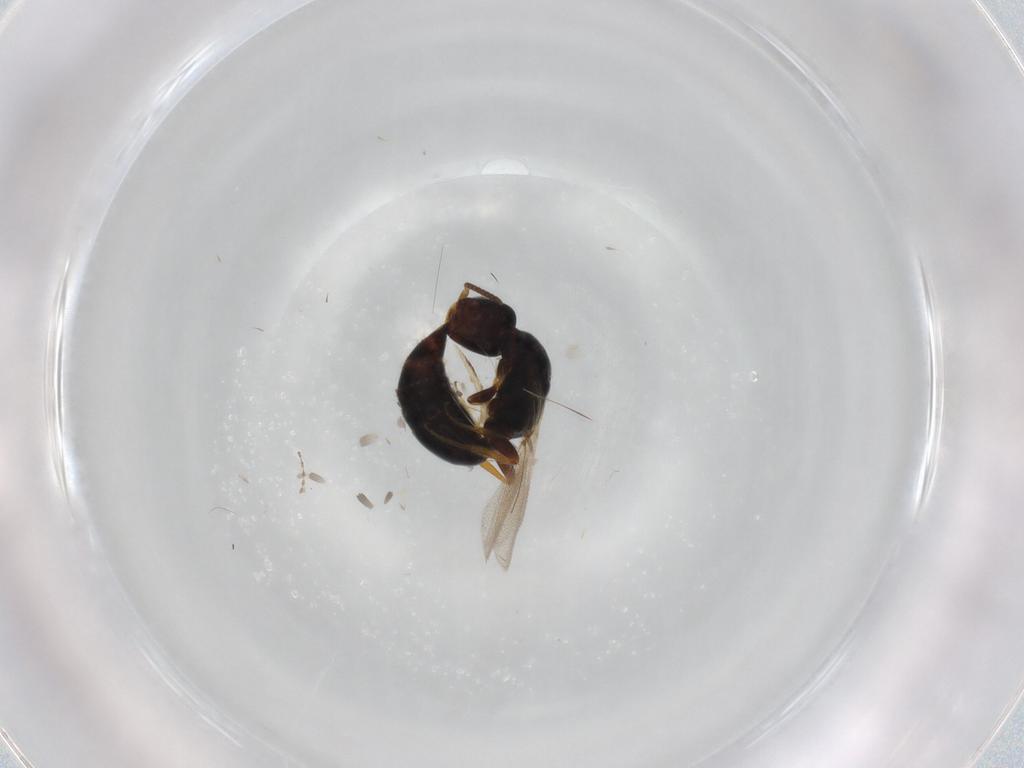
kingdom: Animalia
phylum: Arthropoda
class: Insecta
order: Hymenoptera
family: Bethylidae
